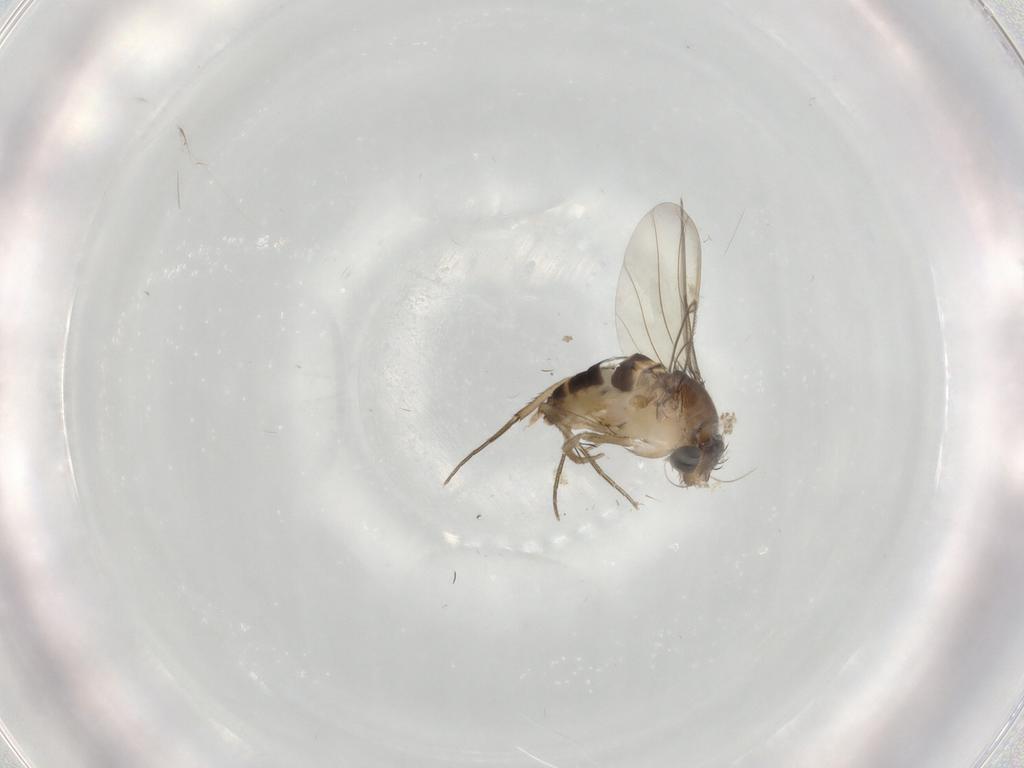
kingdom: Animalia
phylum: Arthropoda
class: Insecta
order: Diptera
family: Phoridae
